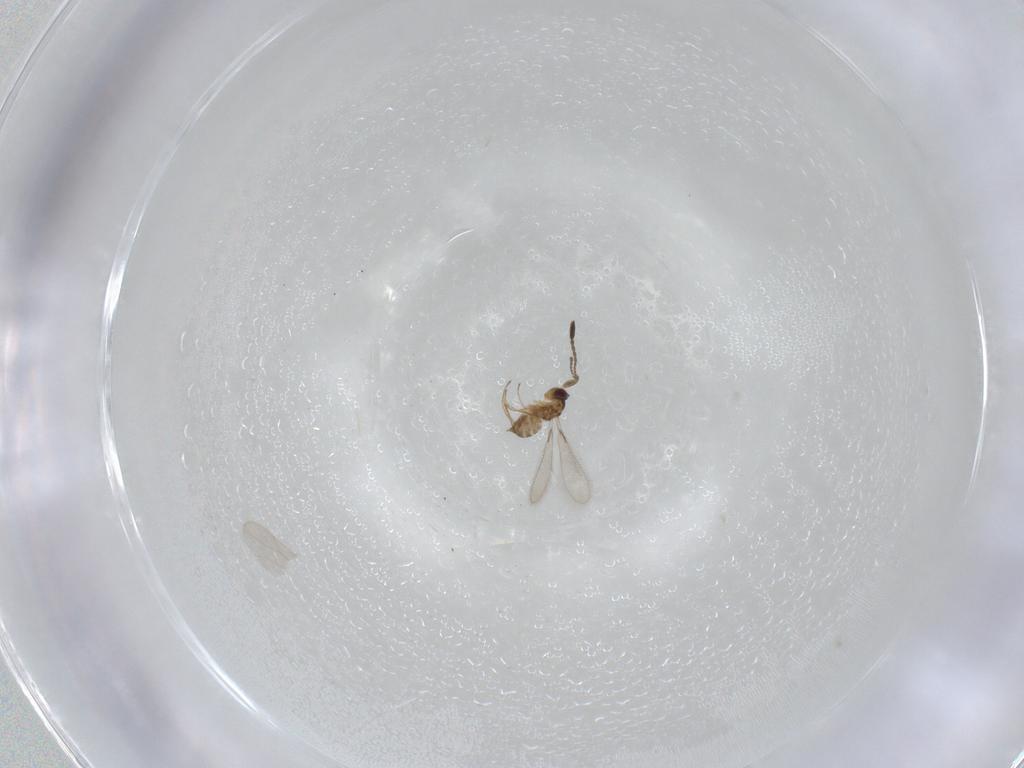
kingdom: Animalia
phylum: Arthropoda
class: Insecta
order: Hymenoptera
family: Mymaridae
